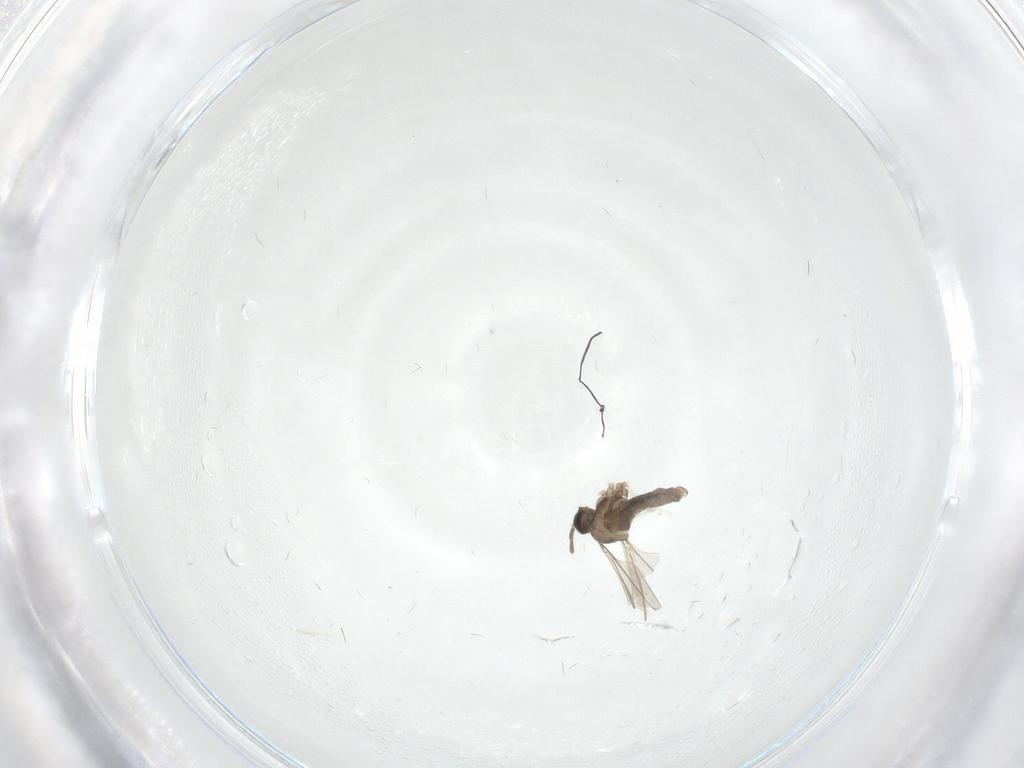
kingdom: Animalia
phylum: Arthropoda
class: Insecta
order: Diptera
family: Cecidomyiidae
